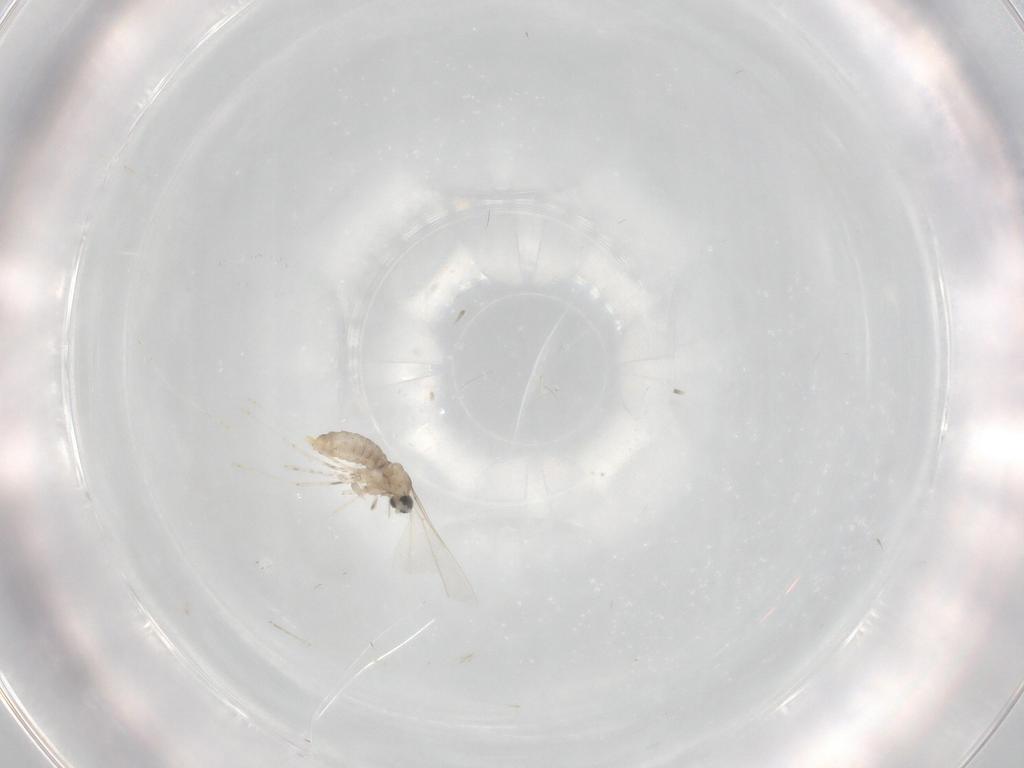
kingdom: Animalia
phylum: Arthropoda
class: Insecta
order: Diptera
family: Cecidomyiidae
